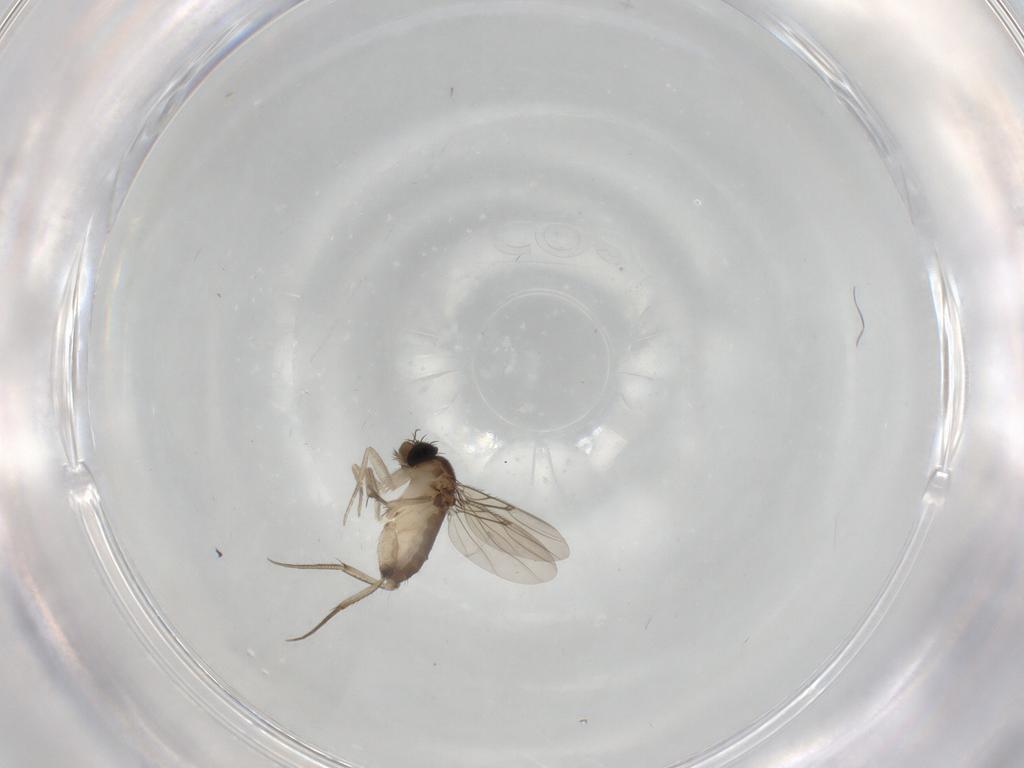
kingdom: Animalia
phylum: Arthropoda
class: Insecta
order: Diptera
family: Phoridae
